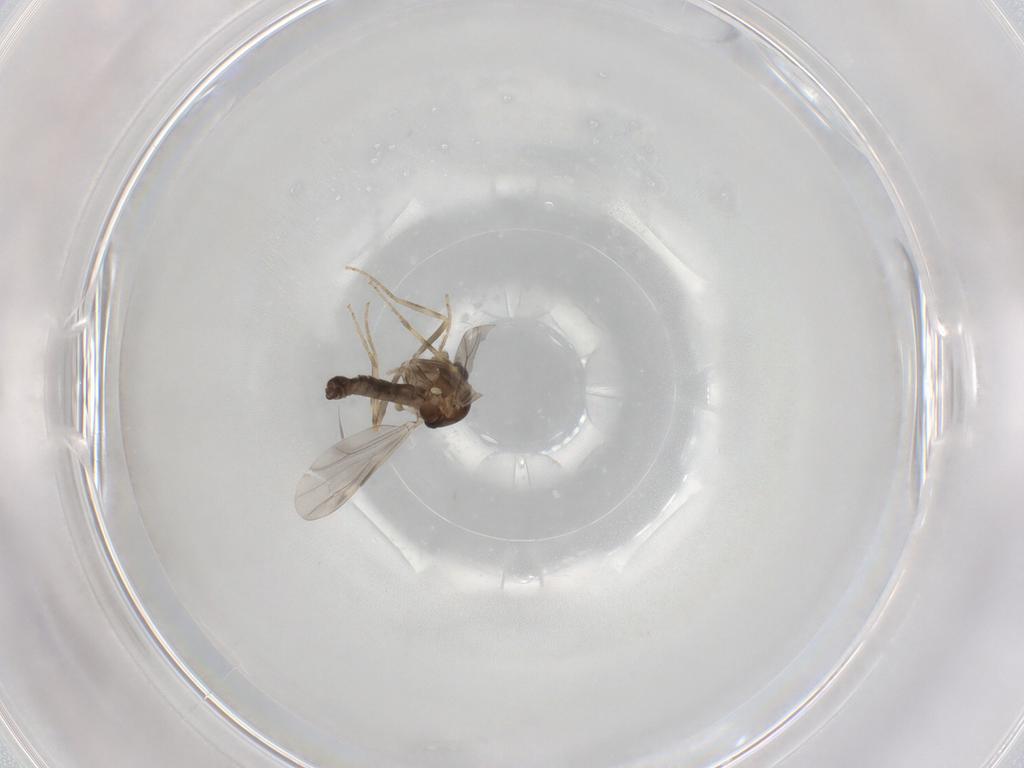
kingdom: Animalia
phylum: Arthropoda
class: Insecta
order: Diptera
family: Ceratopogonidae
